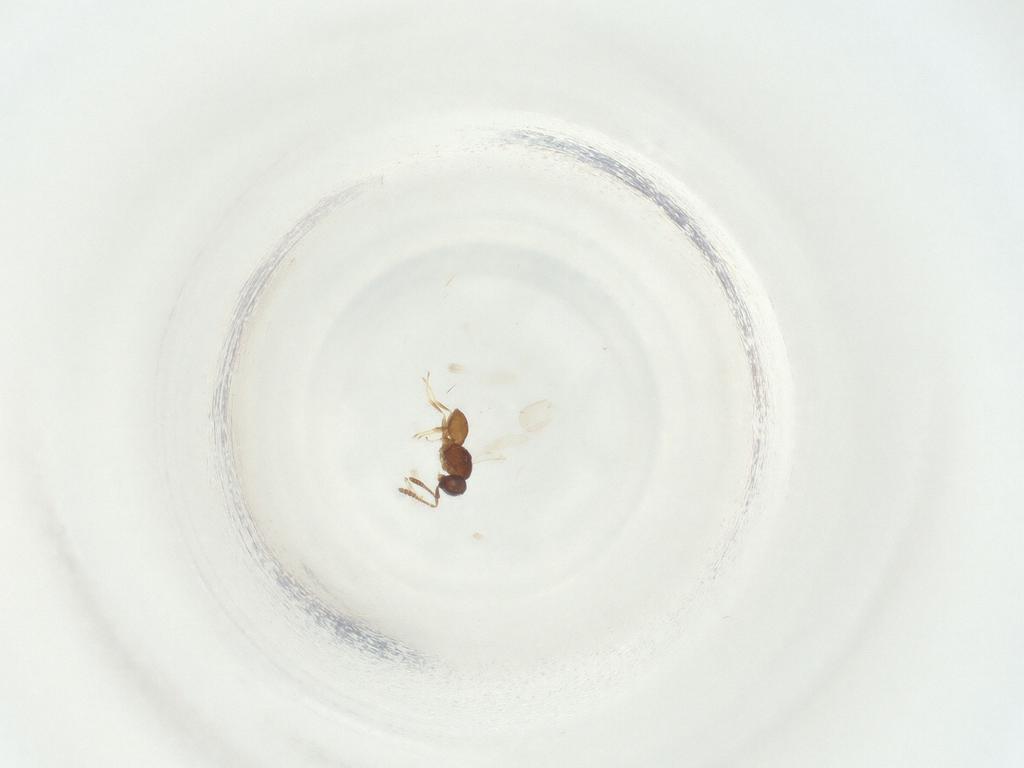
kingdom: Animalia
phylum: Arthropoda
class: Insecta
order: Hymenoptera
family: Scelionidae
